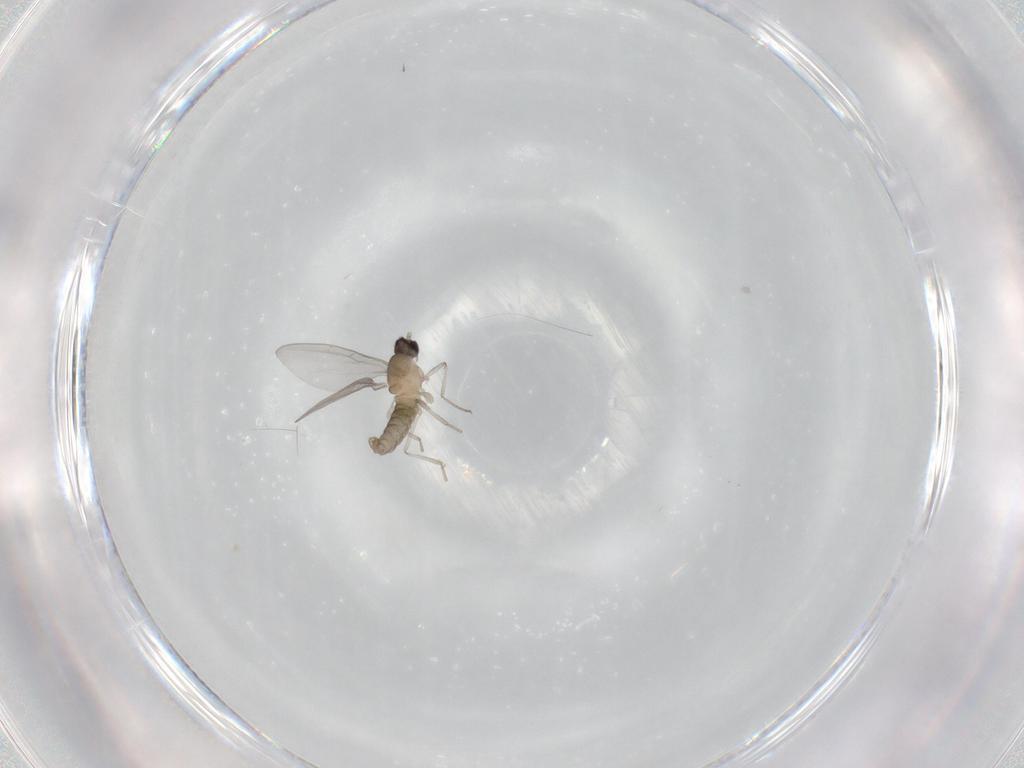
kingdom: Animalia
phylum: Arthropoda
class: Insecta
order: Diptera
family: Cecidomyiidae
